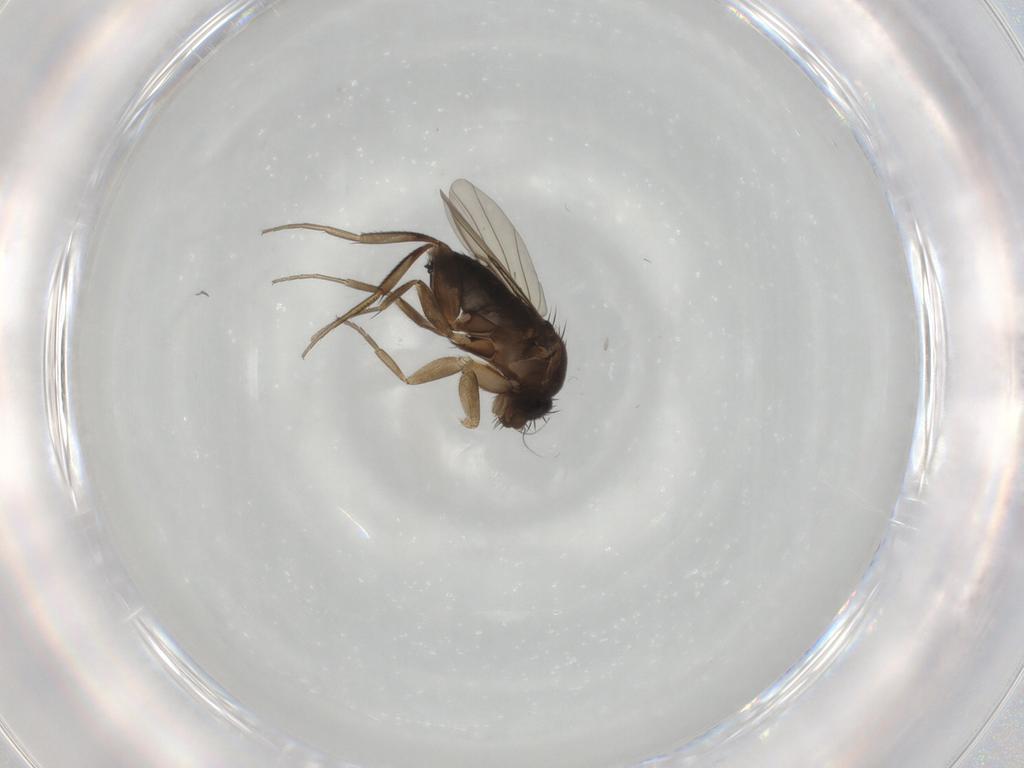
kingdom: Animalia
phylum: Arthropoda
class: Insecta
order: Diptera
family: Phoridae
